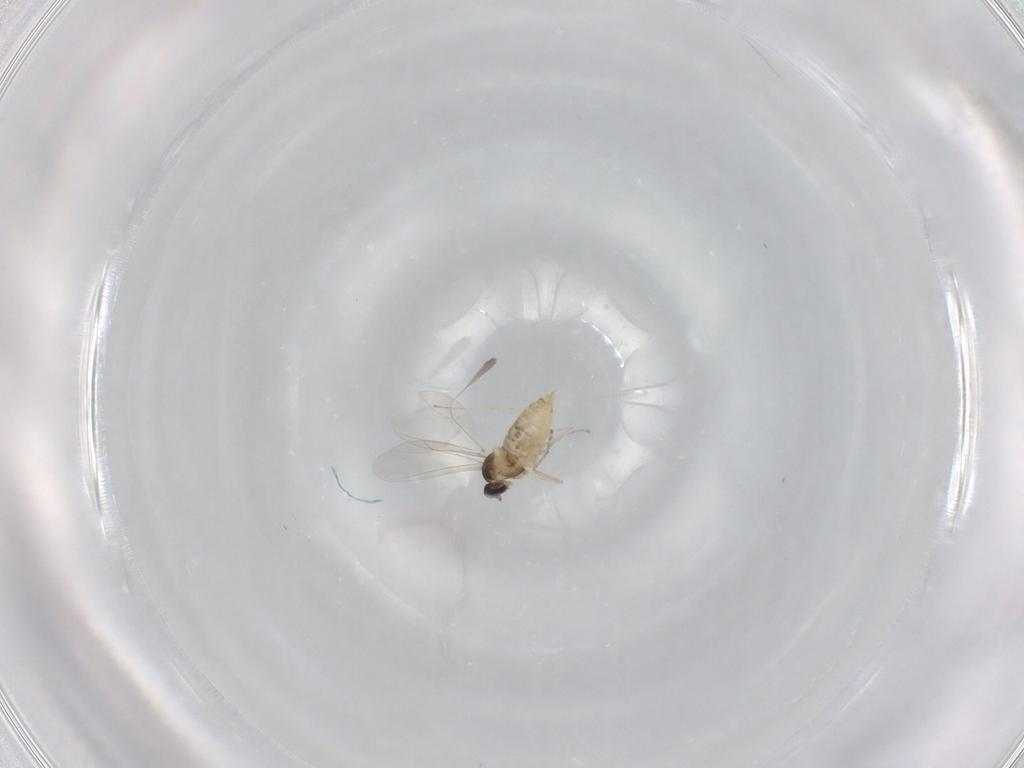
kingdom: Animalia
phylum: Arthropoda
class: Insecta
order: Diptera
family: Cecidomyiidae
